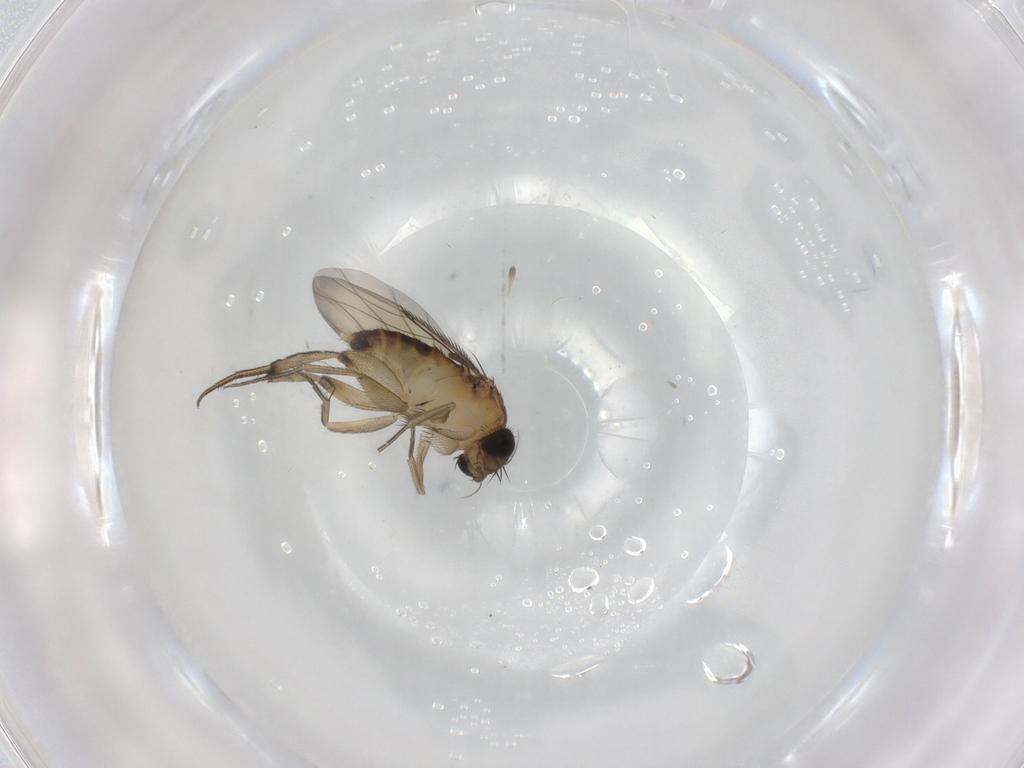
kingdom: Animalia
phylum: Arthropoda
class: Insecta
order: Diptera
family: Phoridae
